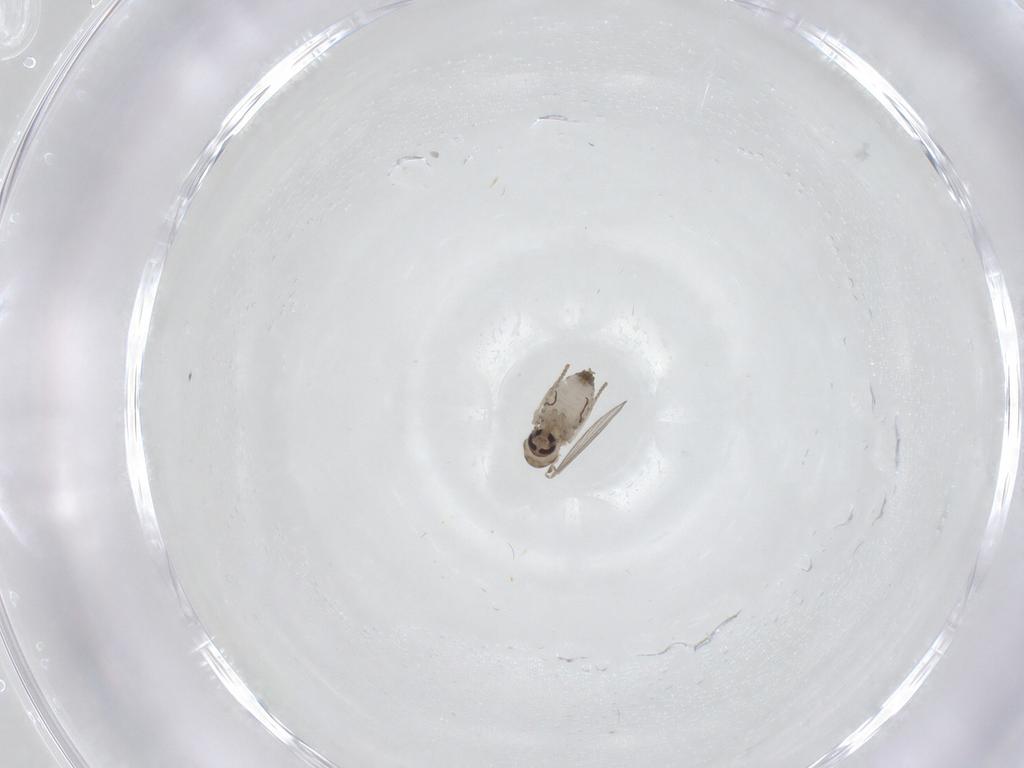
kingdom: Animalia
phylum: Arthropoda
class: Insecta
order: Diptera
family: Psychodidae
